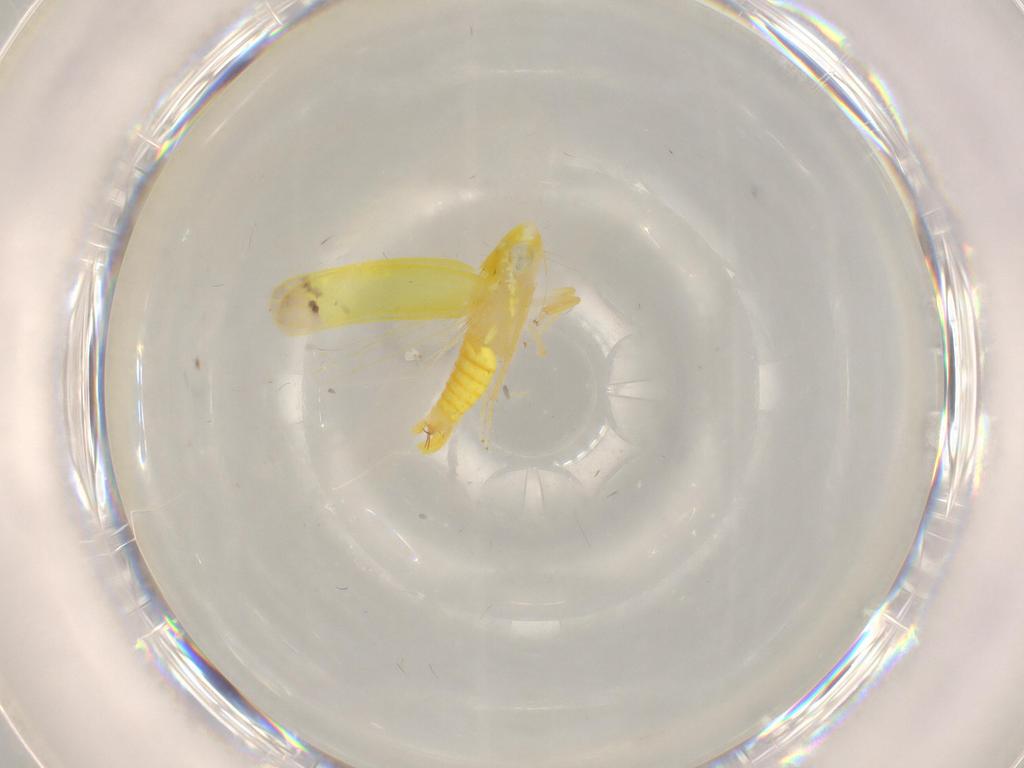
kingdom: Animalia
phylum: Arthropoda
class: Insecta
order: Hemiptera
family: Cicadellidae
